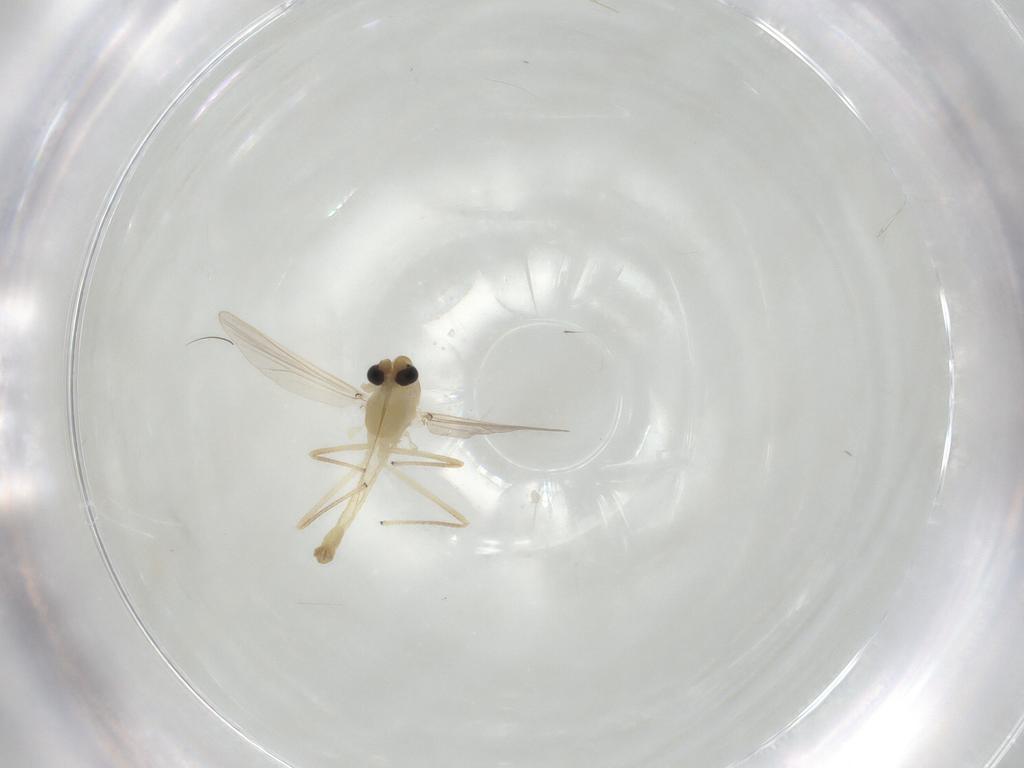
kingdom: Animalia
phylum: Arthropoda
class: Insecta
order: Diptera
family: Chironomidae
